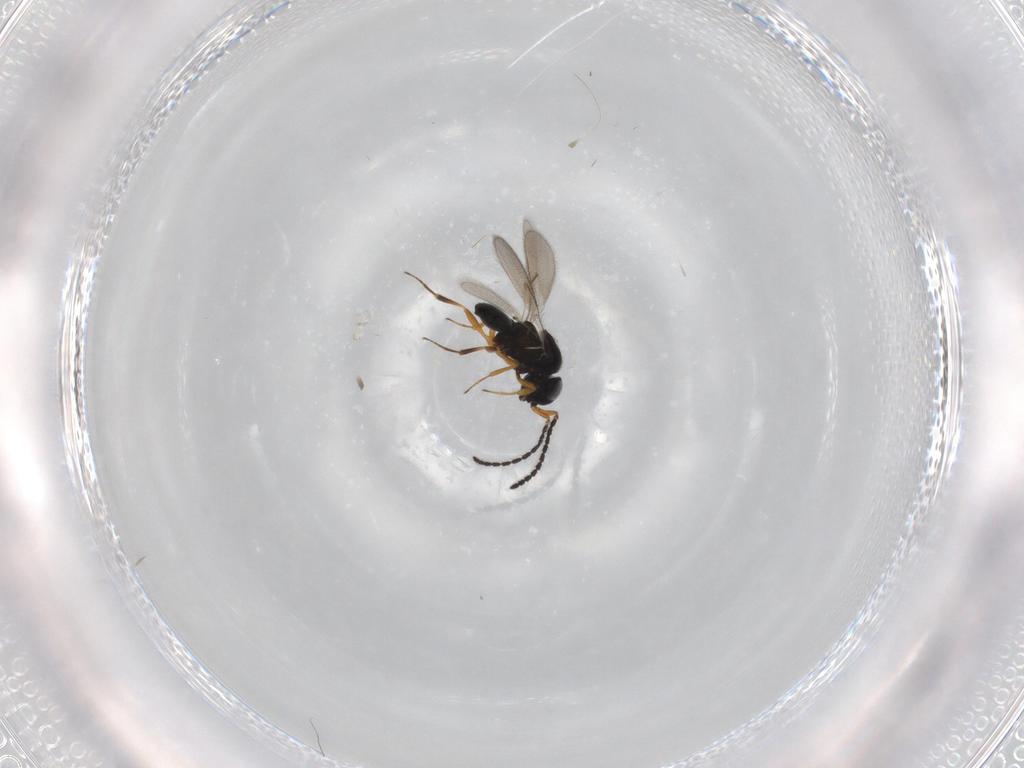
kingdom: Animalia
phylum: Arthropoda
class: Insecta
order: Hymenoptera
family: Scelionidae
